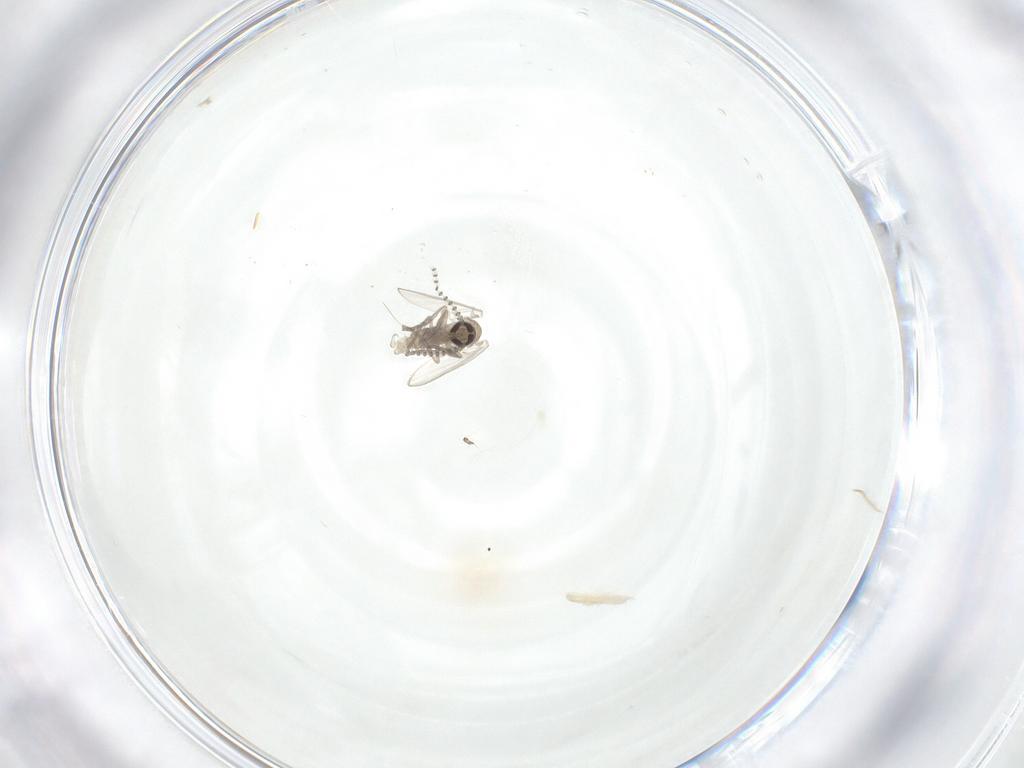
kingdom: Animalia
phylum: Arthropoda
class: Insecta
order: Diptera
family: Psychodidae
